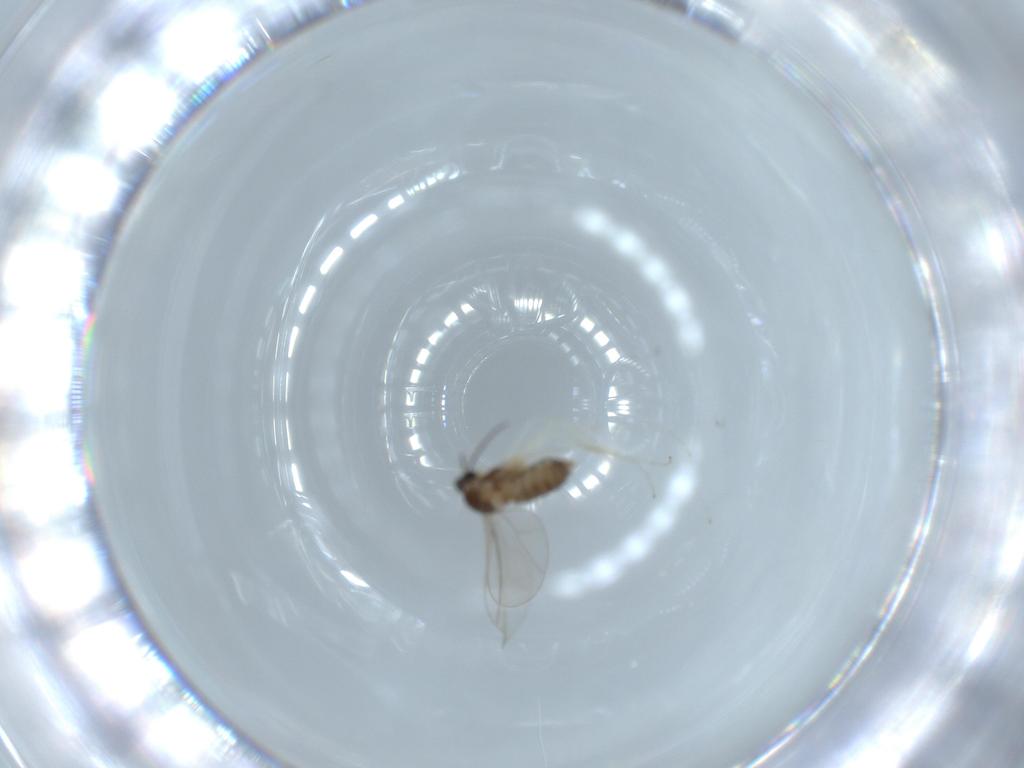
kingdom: Animalia
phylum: Arthropoda
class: Insecta
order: Diptera
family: Cecidomyiidae
